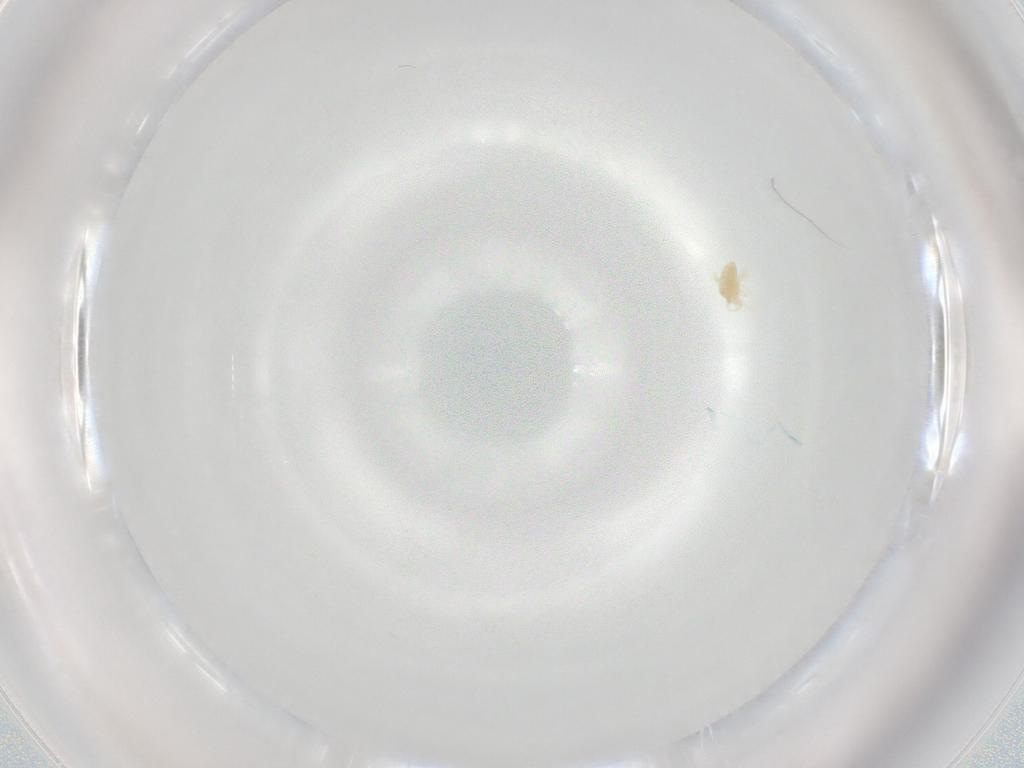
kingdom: Animalia
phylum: Arthropoda
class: Arachnida
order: Trombidiformes
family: Eupodidae
